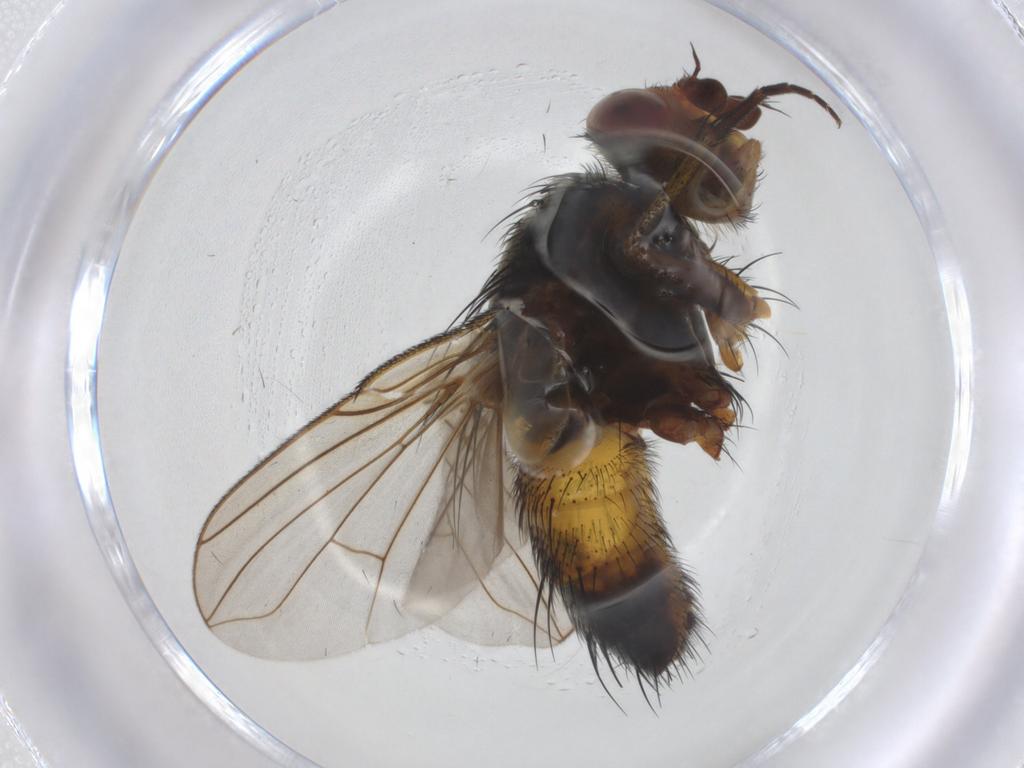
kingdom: Animalia
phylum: Arthropoda
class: Insecta
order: Diptera
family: Tachinidae
